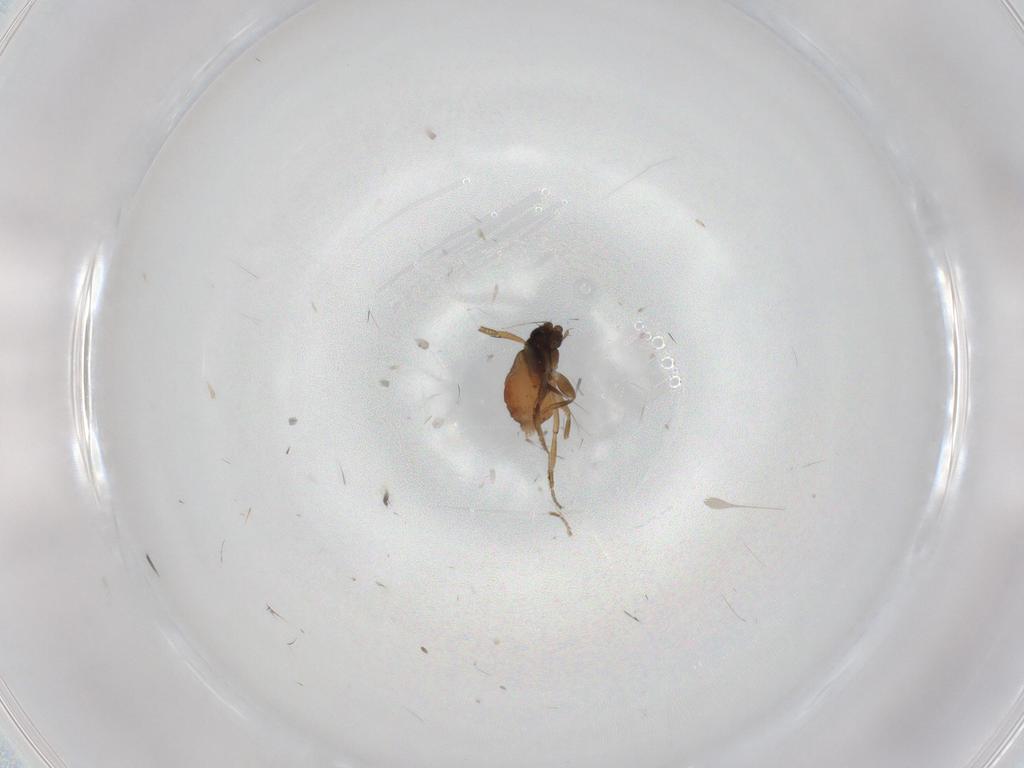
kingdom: Animalia
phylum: Arthropoda
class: Insecta
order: Diptera
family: Phoridae
